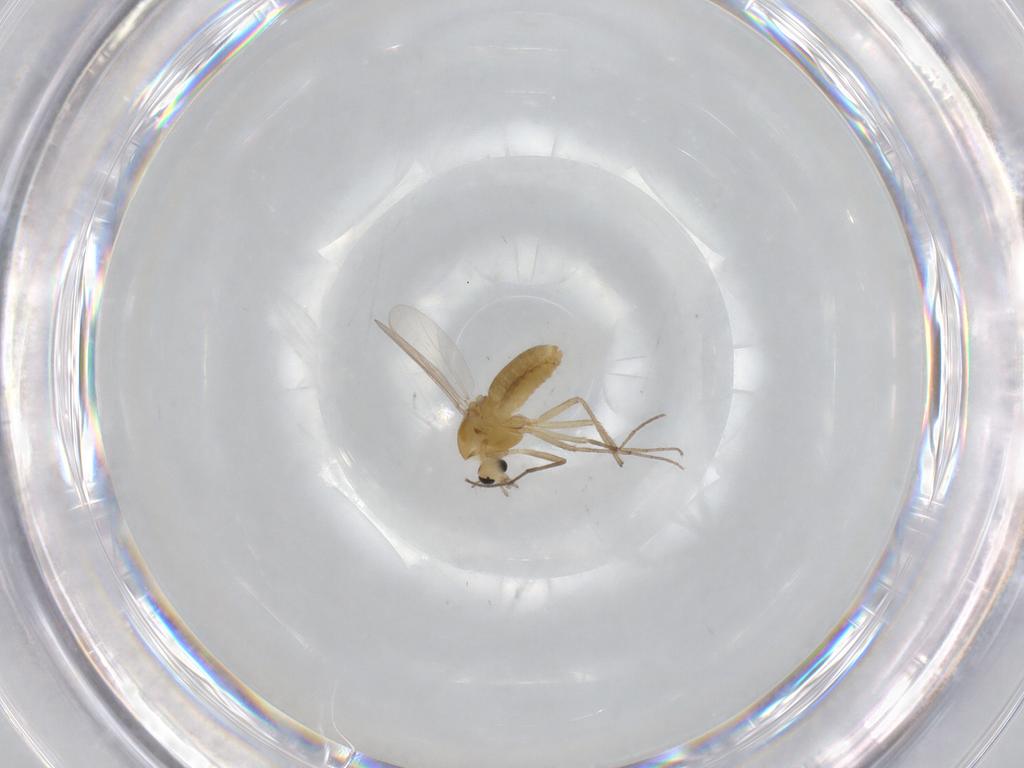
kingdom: Animalia
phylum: Arthropoda
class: Insecta
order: Diptera
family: Chironomidae
